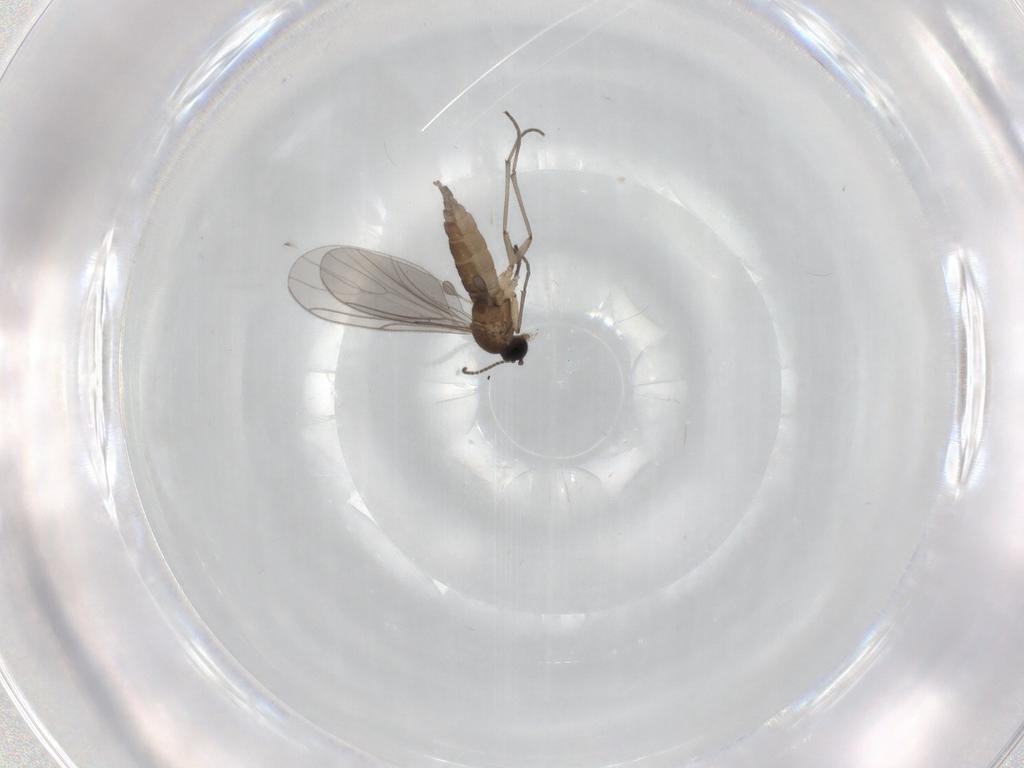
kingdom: Animalia
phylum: Arthropoda
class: Insecta
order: Diptera
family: Sciaridae
